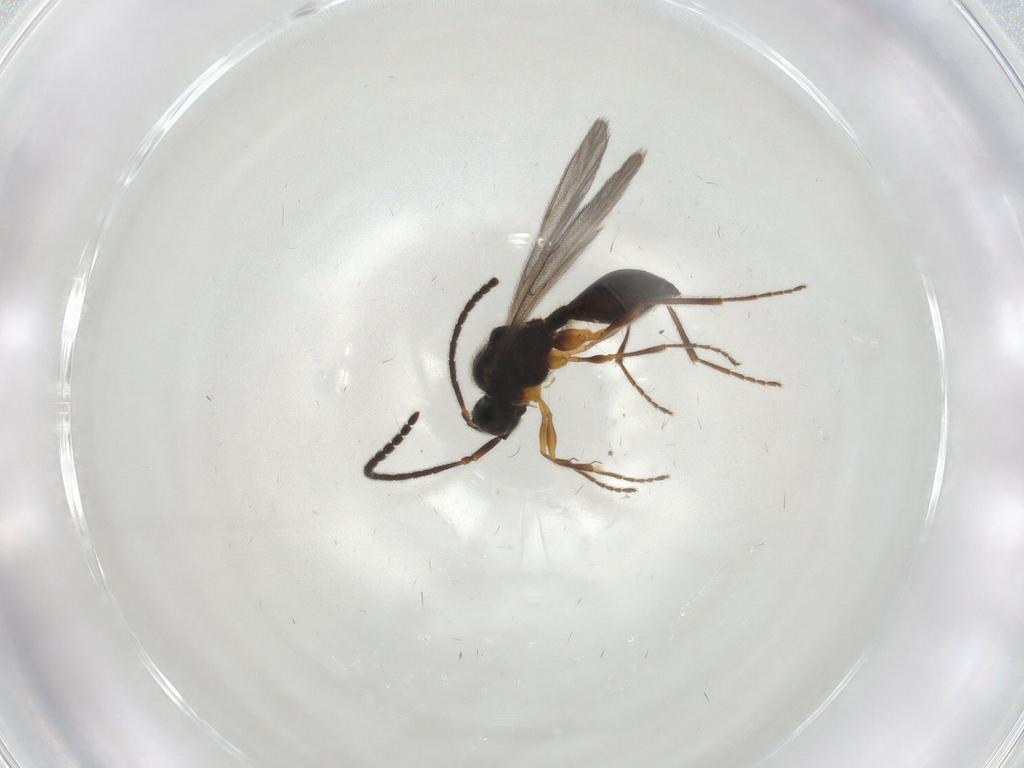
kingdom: Animalia
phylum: Arthropoda
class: Insecta
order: Hymenoptera
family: Diapriidae
